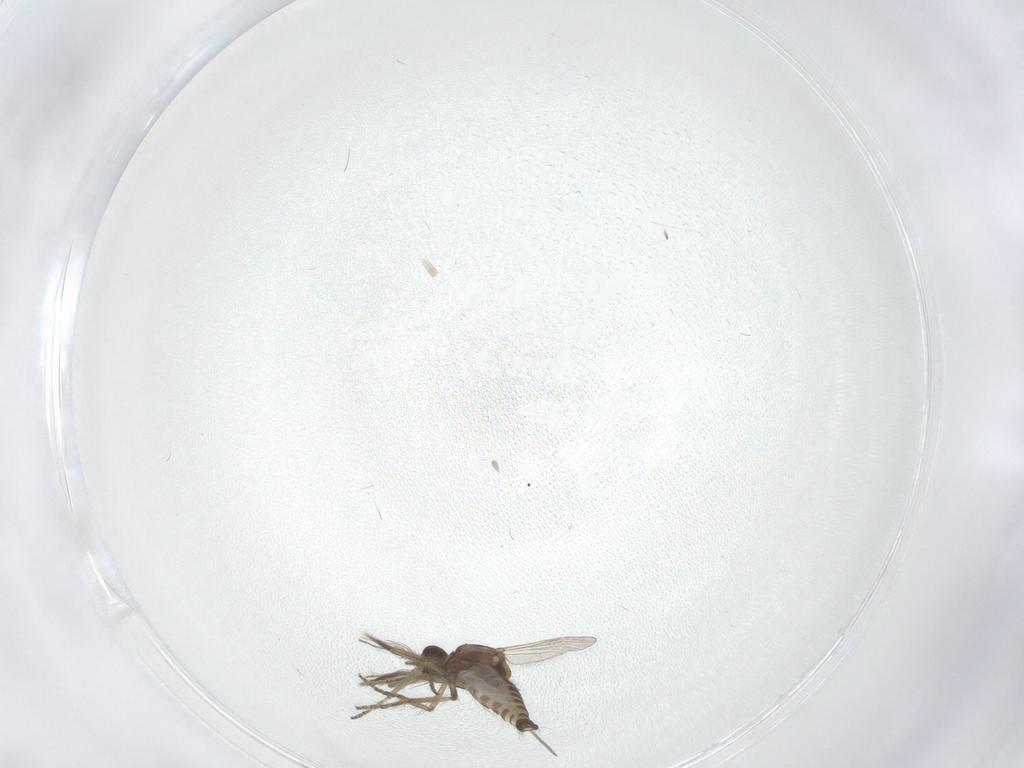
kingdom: Animalia
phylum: Arthropoda
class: Insecta
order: Diptera
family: Ceratopogonidae
